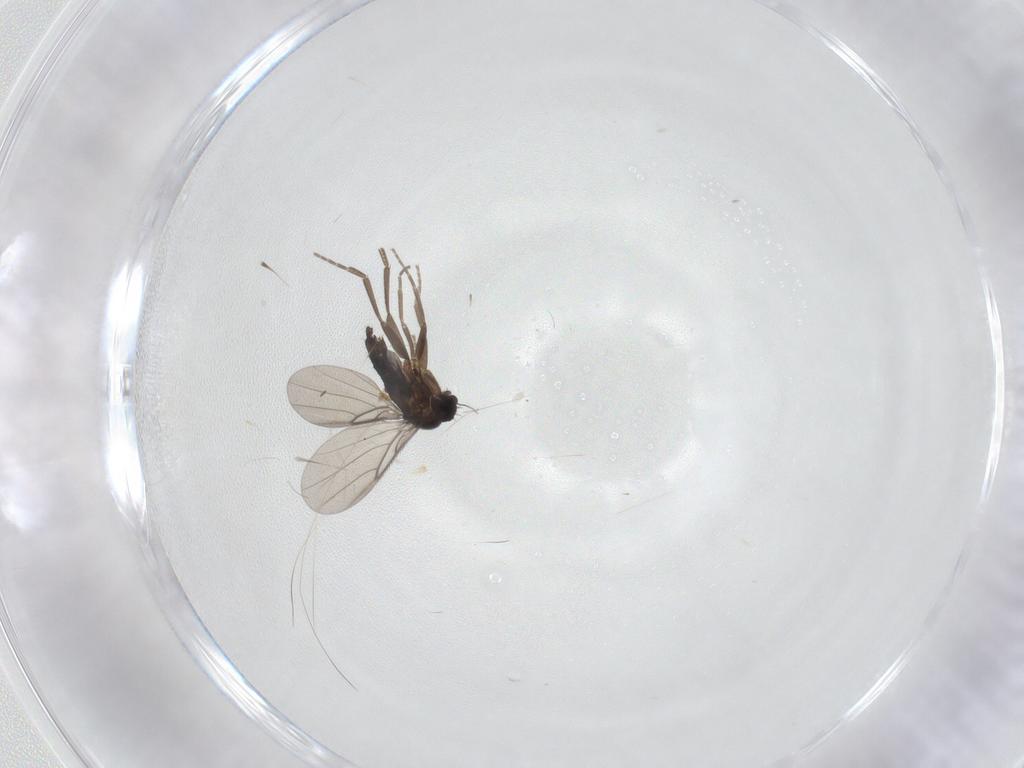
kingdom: Animalia
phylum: Arthropoda
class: Insecta
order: Diptera
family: Phoridae
